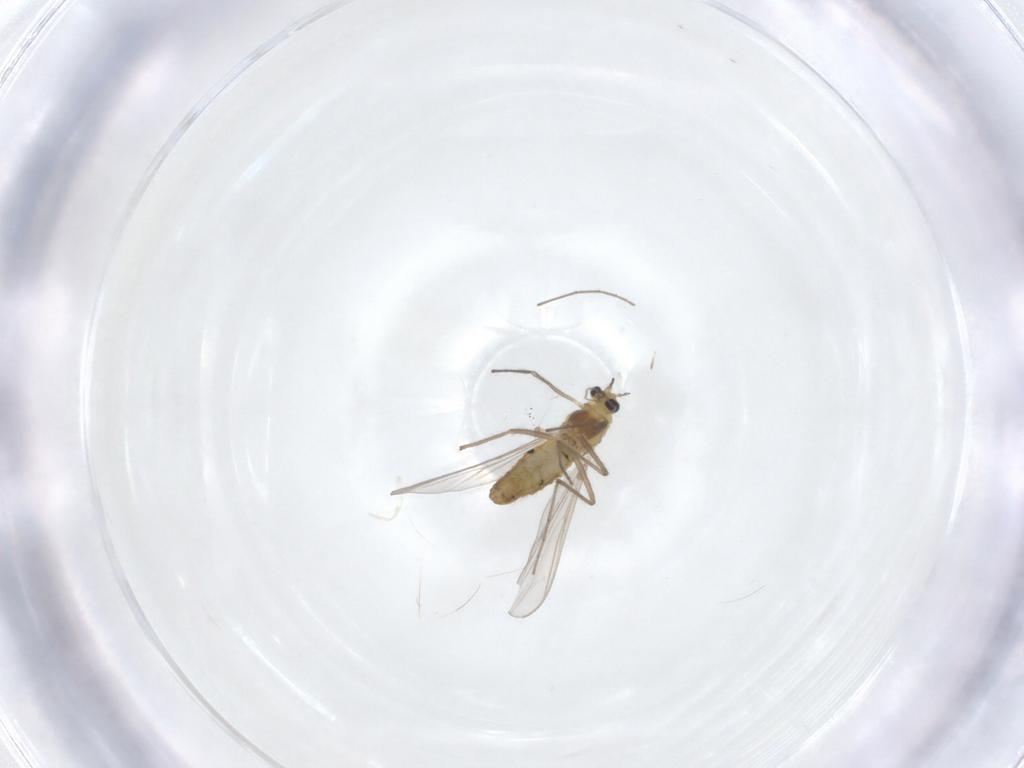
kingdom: Animalia
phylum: Arthropoda
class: Insecta
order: Diptera
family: Chironomidae
